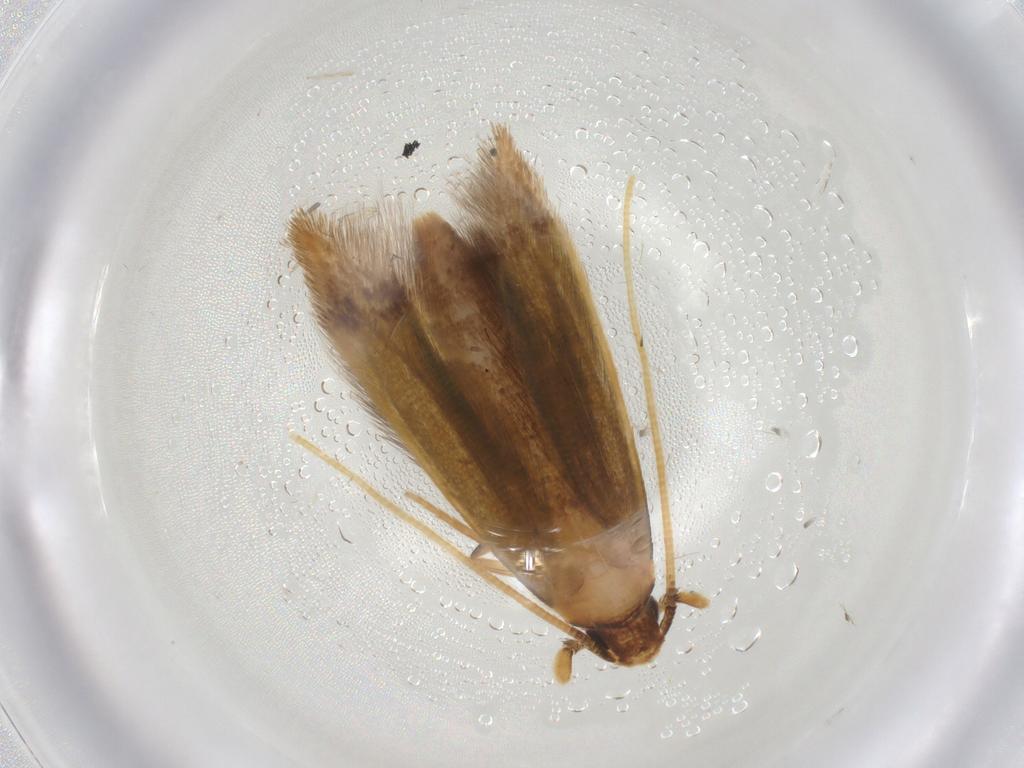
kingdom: Animalia
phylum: Arthropoda
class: Insecta
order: Lepidoptera
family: Tineidae
